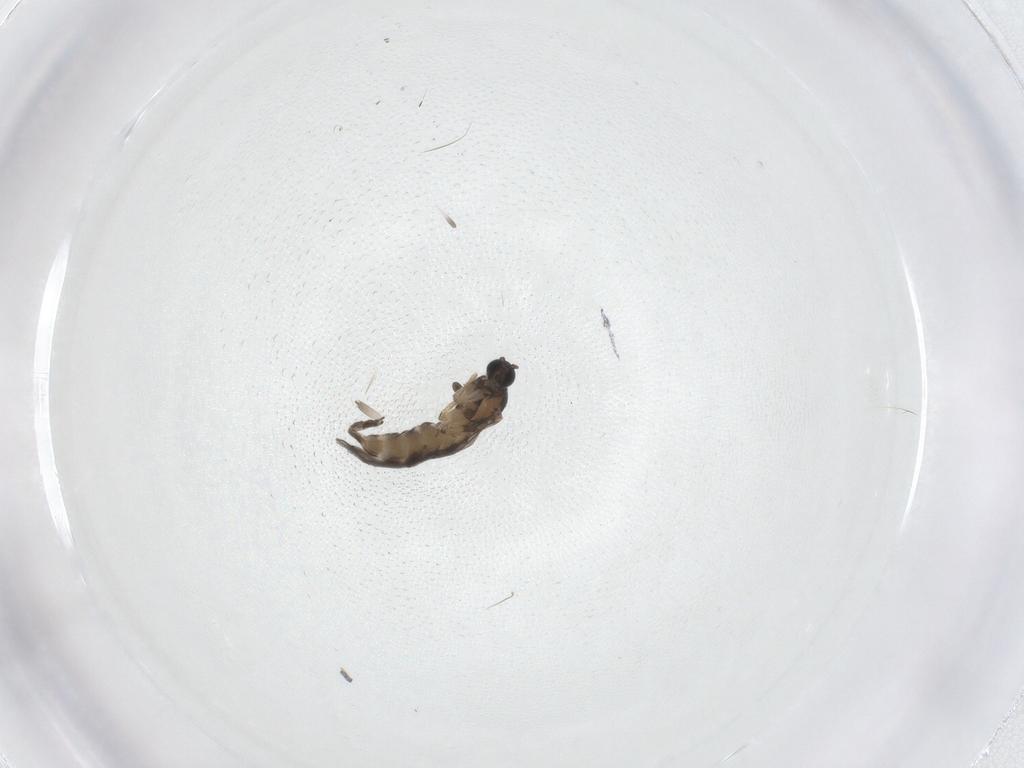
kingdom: Animalia
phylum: Arthropoda
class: Insecta
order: Diptera
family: Sciaridae
